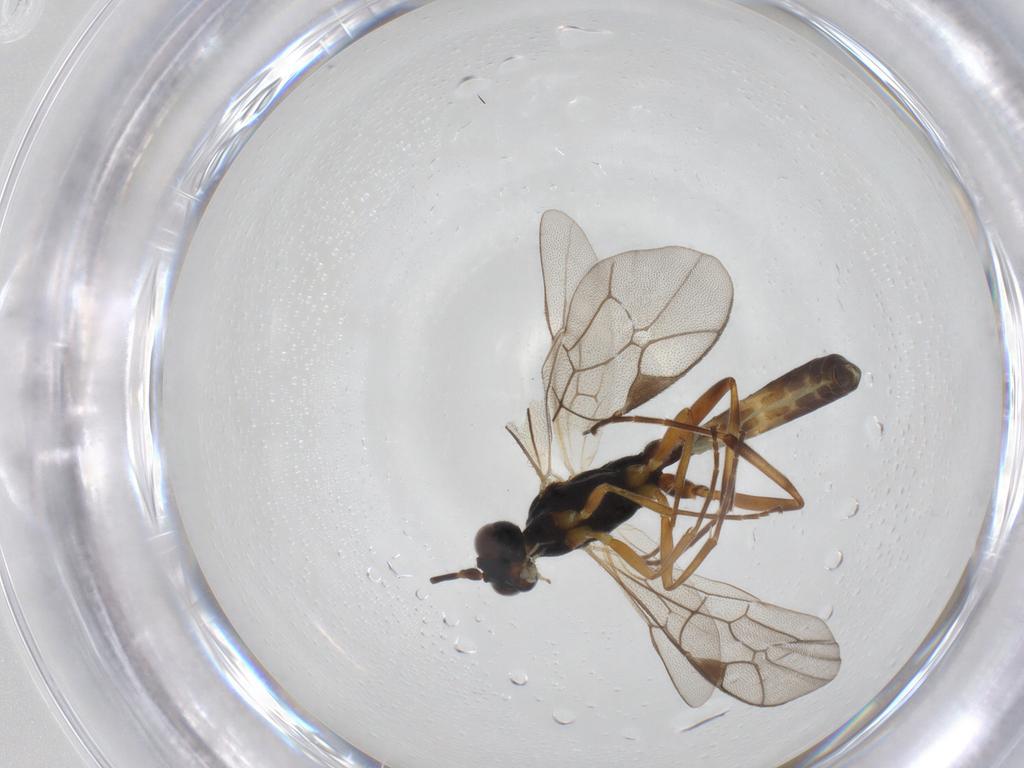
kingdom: Animalia
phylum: Arthropoda
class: Insecta
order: Hymenoptera
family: Ichneumonidae
